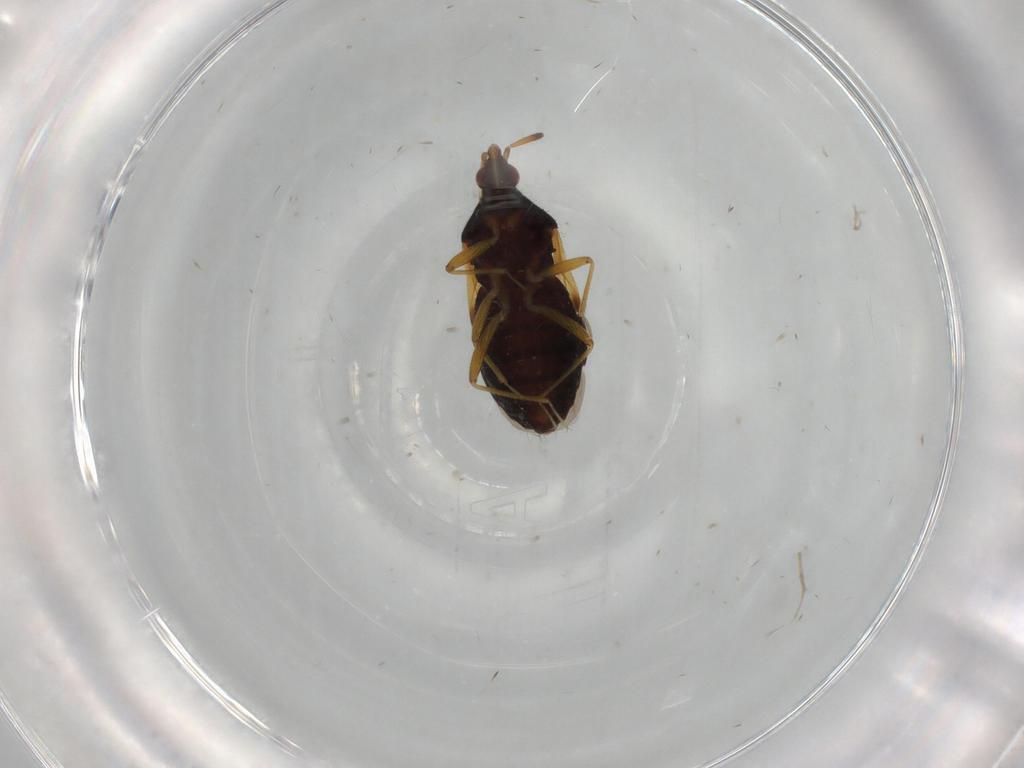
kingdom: Animalia
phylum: Arthropoda
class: Insecta
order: Hemiptera
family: Anthocoridae
